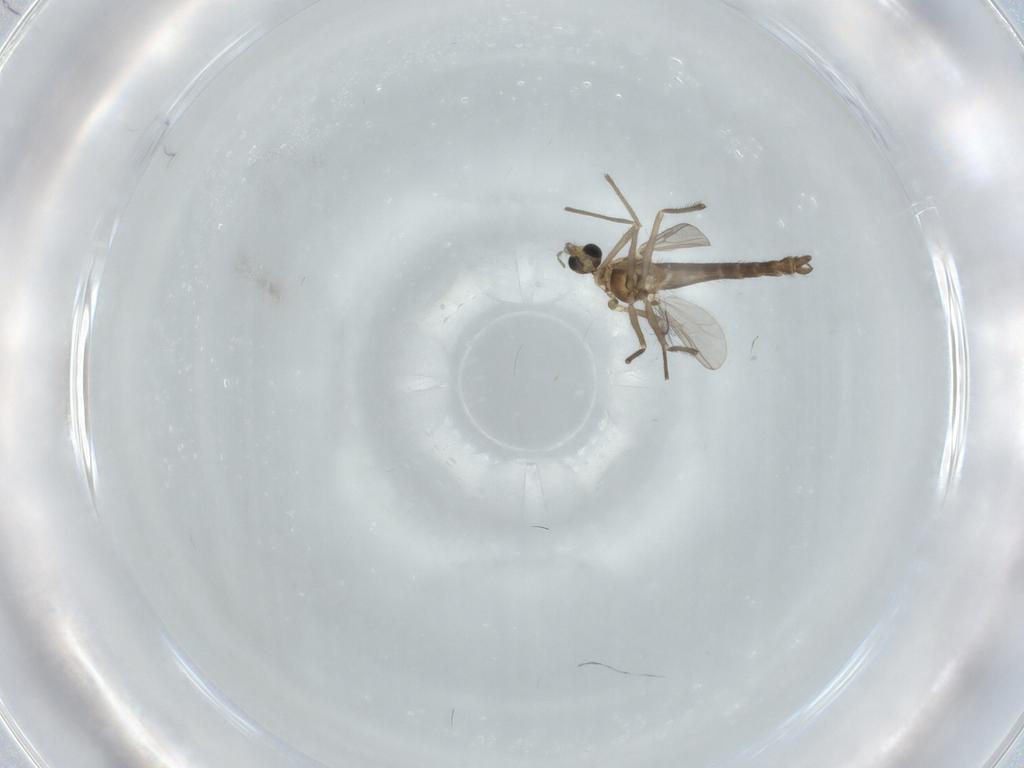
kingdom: Animalia
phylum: Arthropoda
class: Insecta
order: Diptera
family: Chironomidae
